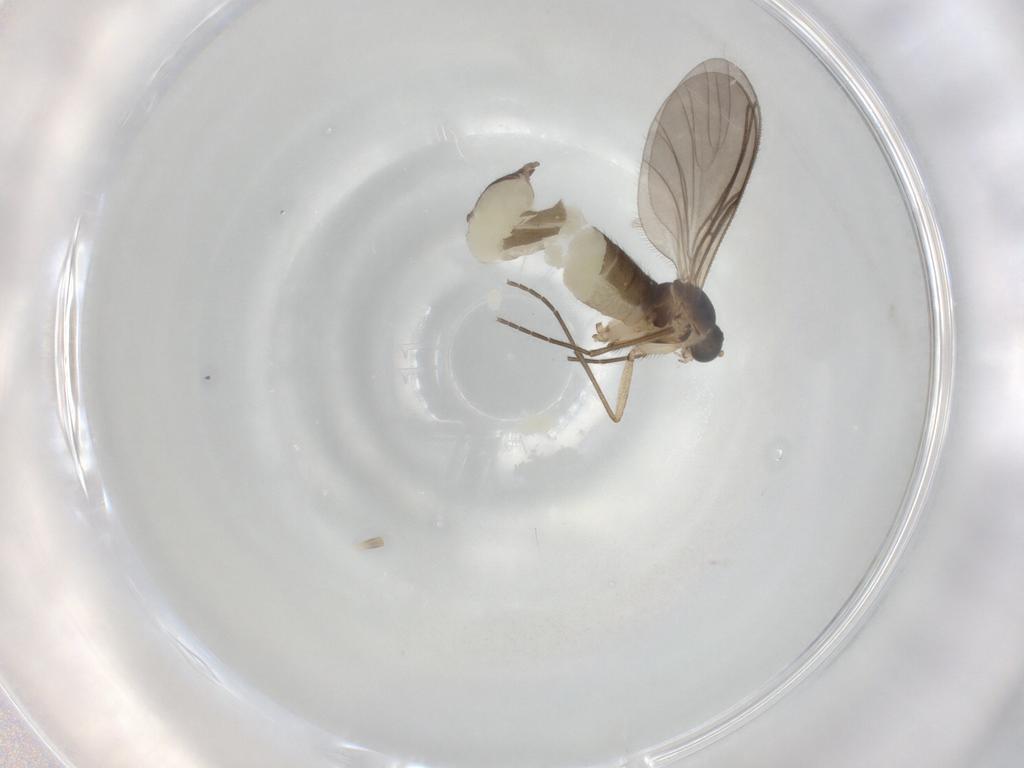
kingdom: Animalia
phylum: Arthropoda
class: Insecta
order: Diptera
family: Sciaridae
